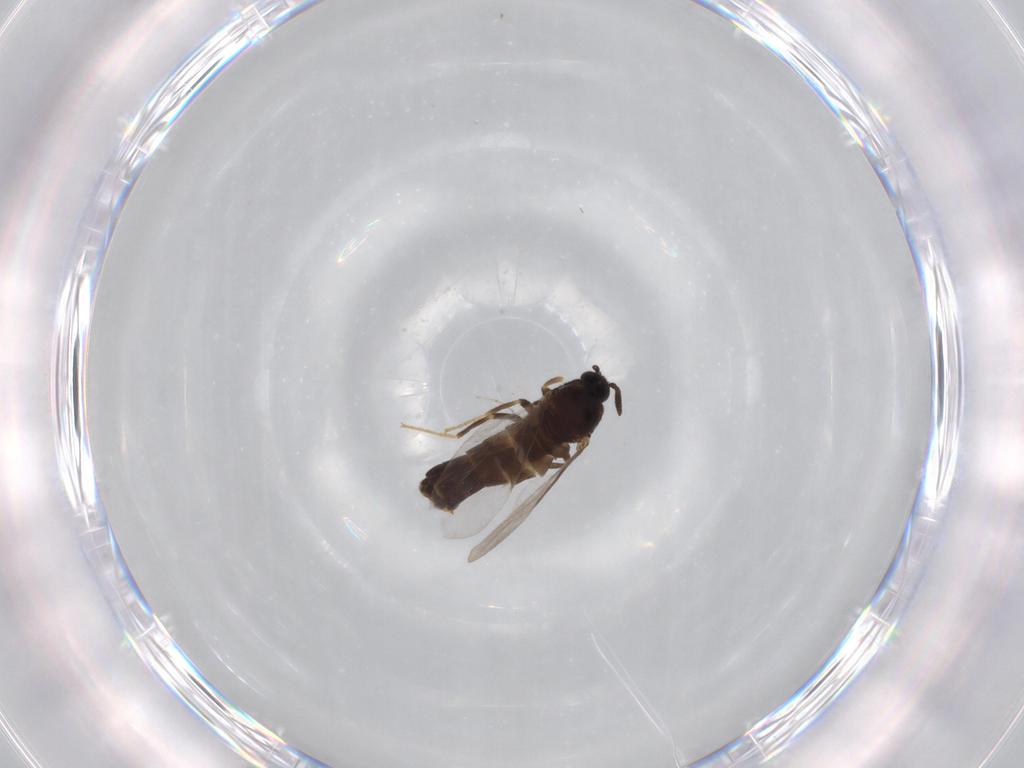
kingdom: Animalia
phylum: Arthropoda
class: Insecta
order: Diptera
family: Scatopsidae
